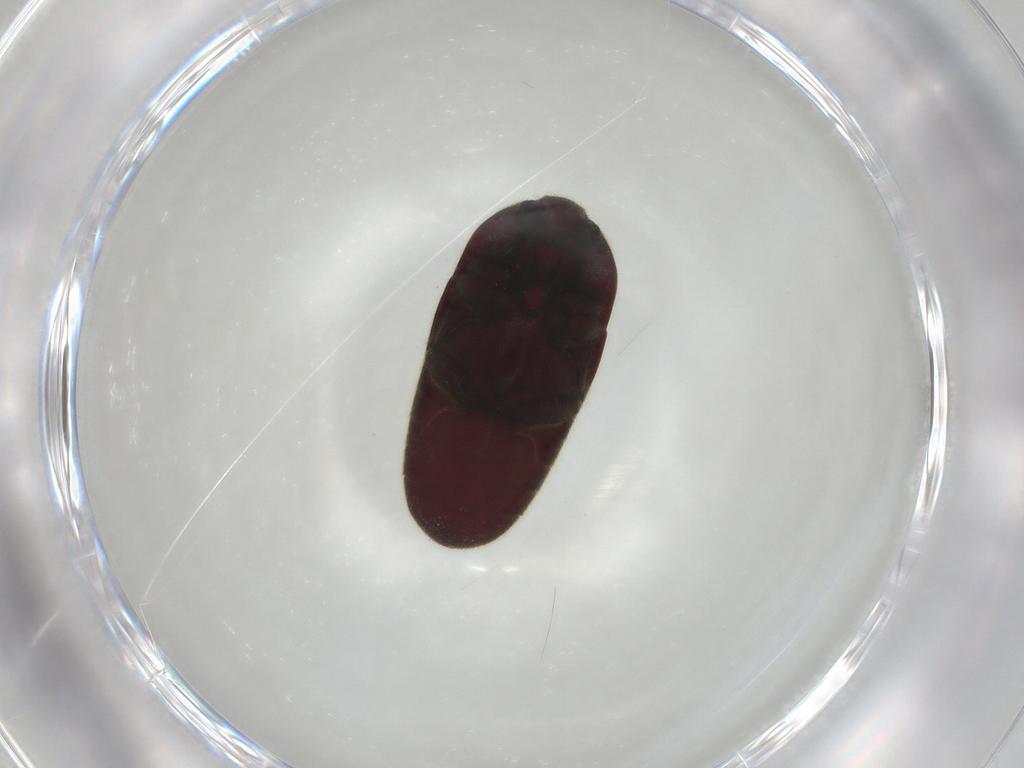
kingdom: Animalia
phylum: Arthropoda
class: Insecta
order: Coleoptera
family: Throscidae
